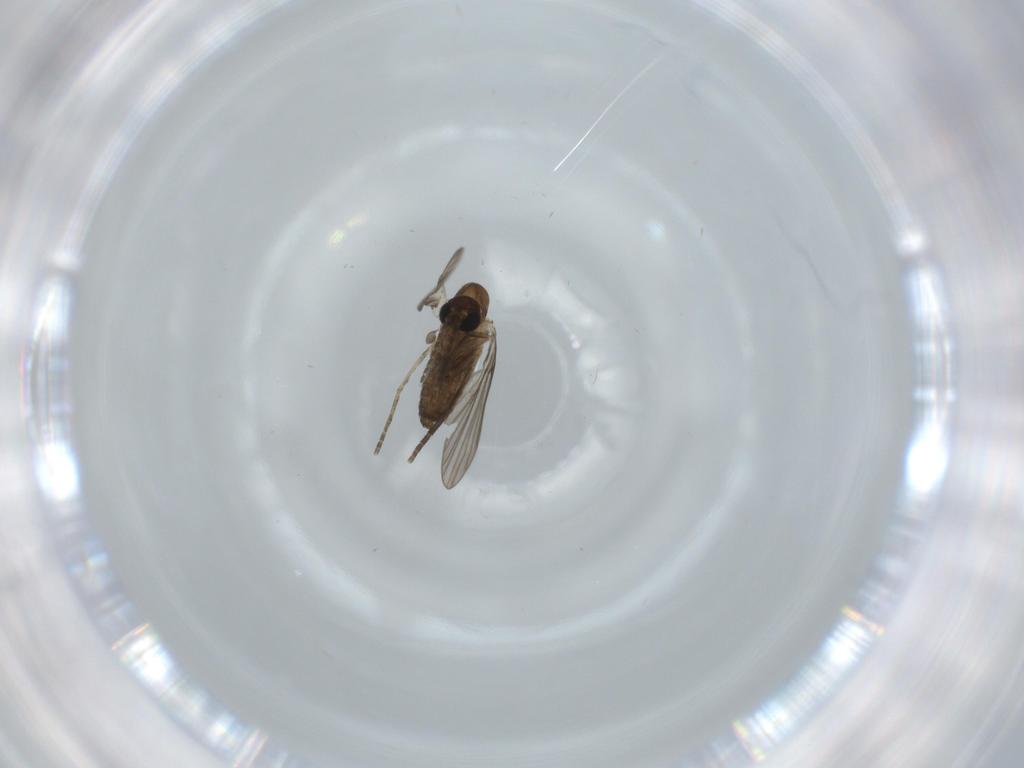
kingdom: Animalia
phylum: Arthropoda
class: Insecta
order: Diptera
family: Psychodidae
